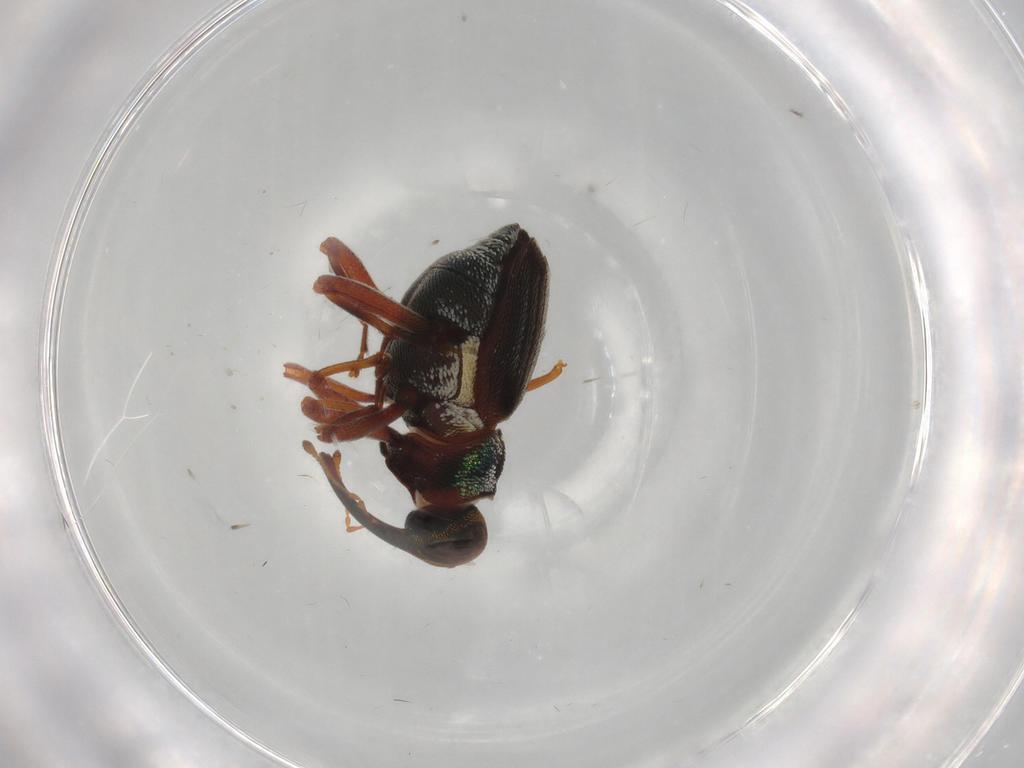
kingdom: Animalia
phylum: Arthropoda
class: Insecta
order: Coleoptera
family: Curculionidae
